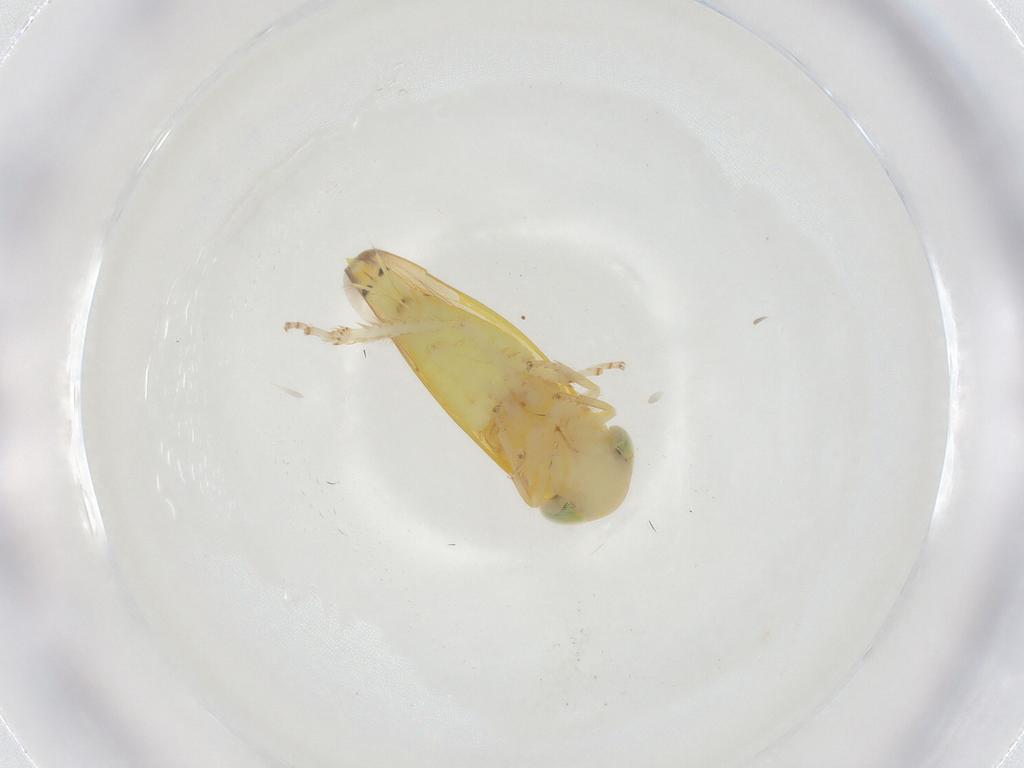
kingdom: Animalia
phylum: Arthropoda
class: Insecta
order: Hemiptera
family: Cicadellidae
